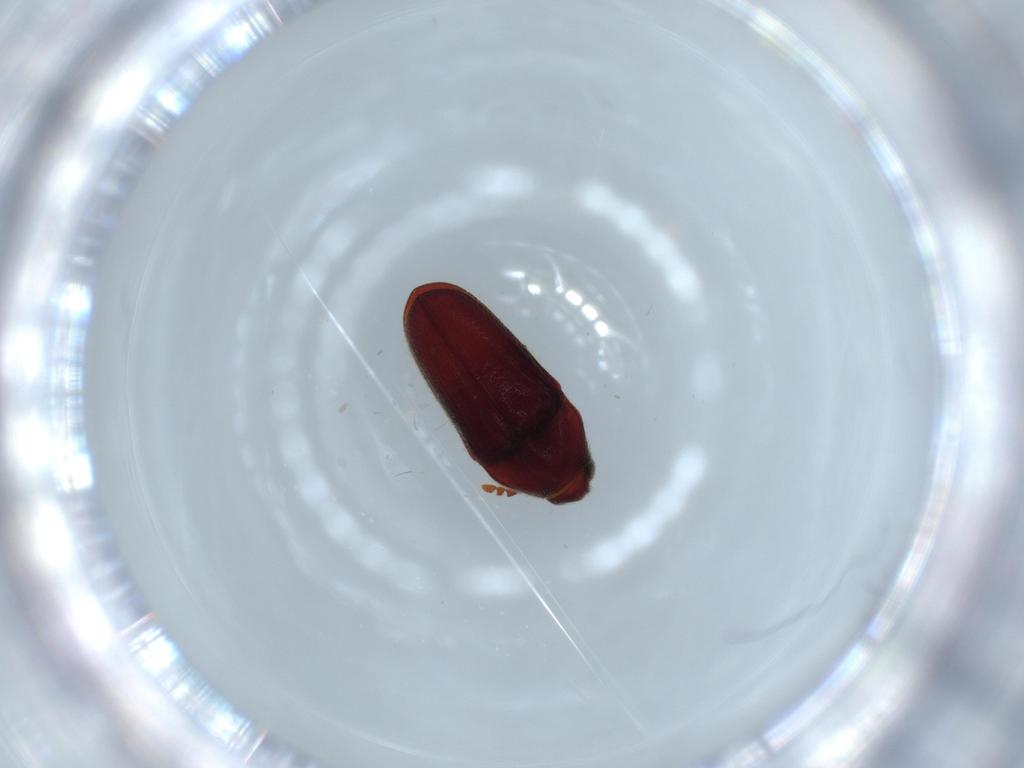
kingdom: Animalia
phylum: Arthropoda
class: Insecta
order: Coleoptera
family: Throscidae
